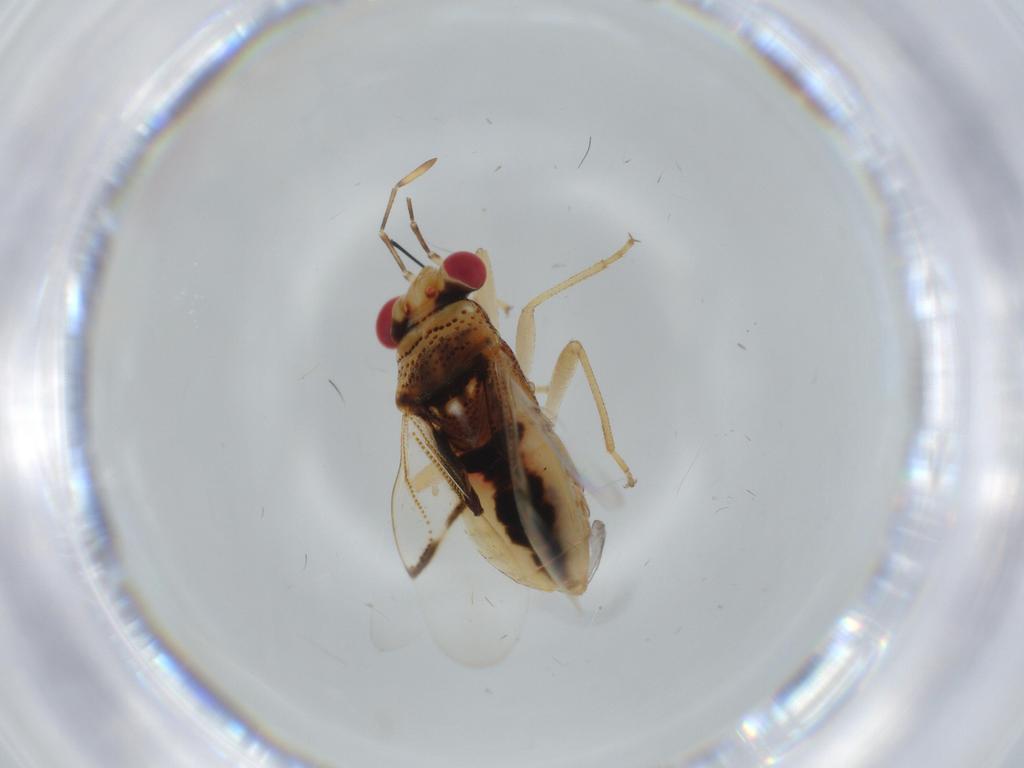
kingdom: Animalia
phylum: Arthropoda
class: Insecta
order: Hemiptera
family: Geocoridae
